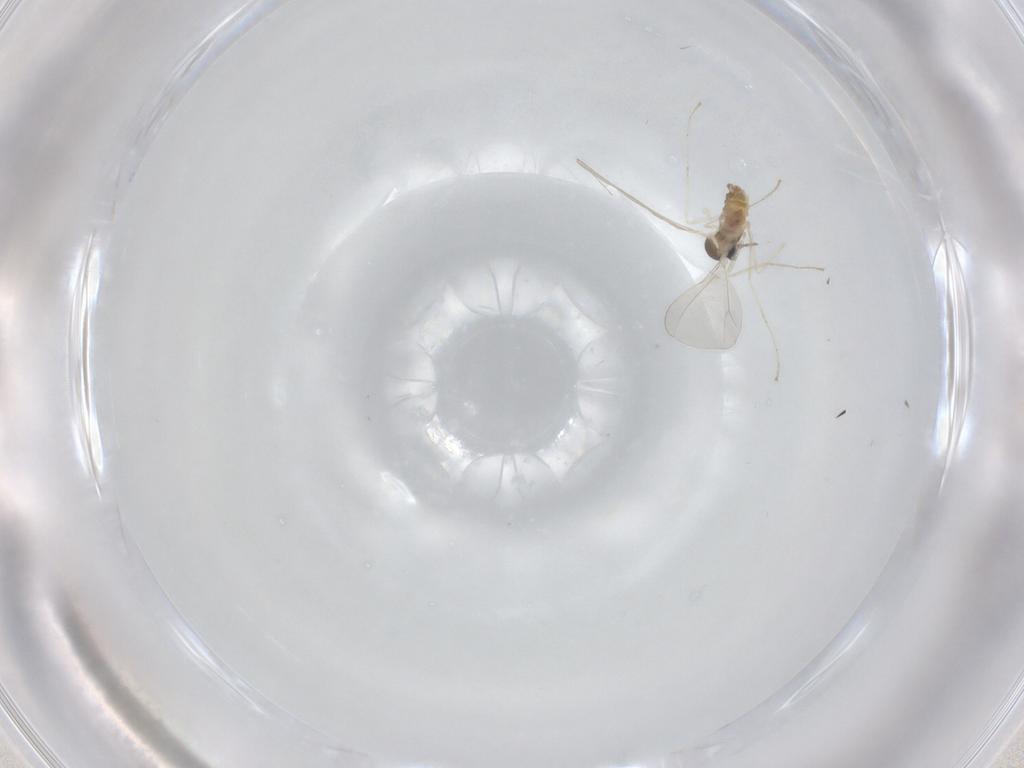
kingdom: Animalia
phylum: Arthropoda
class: Insecta
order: Diptera
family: Cecidomyiidae
